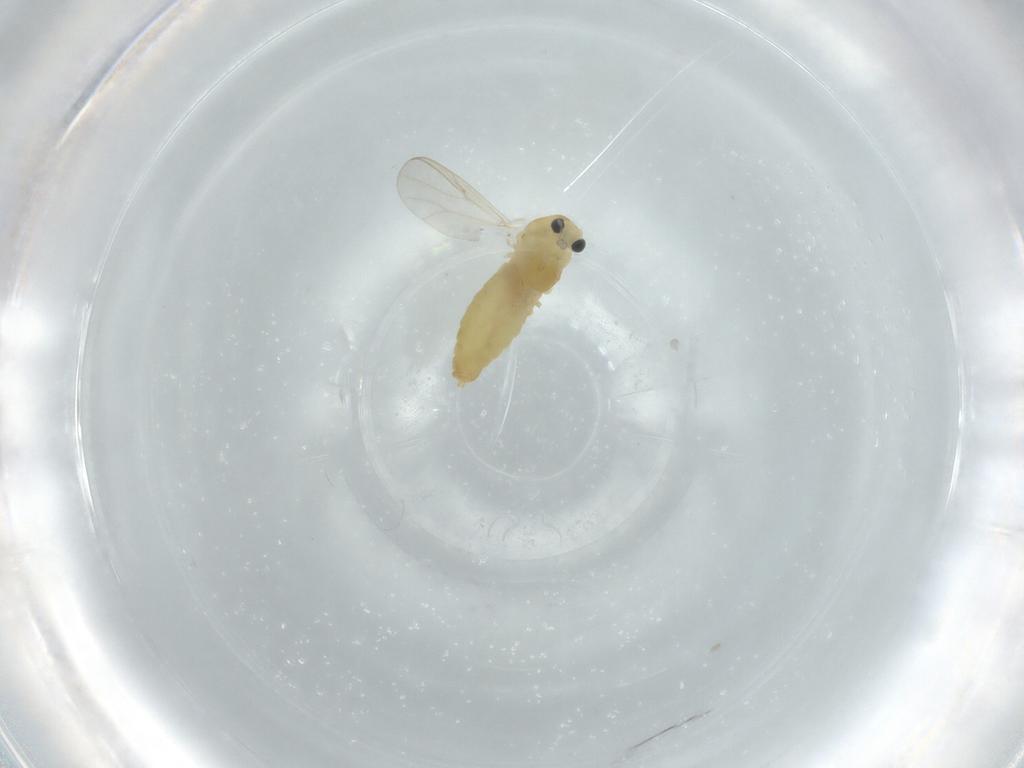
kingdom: Animalia
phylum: Arthropoda
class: Insecta
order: Diptera
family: Chironomidae
